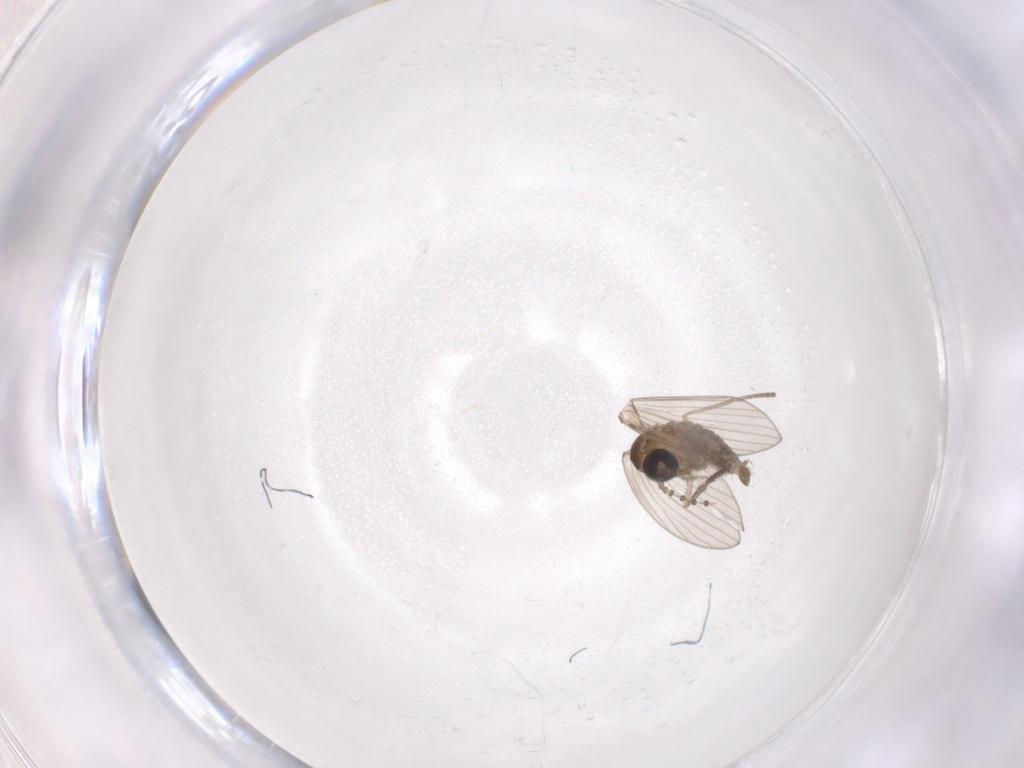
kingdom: Animalia
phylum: Arthropoda
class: Insecta
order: Diptera
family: Psychodidae
